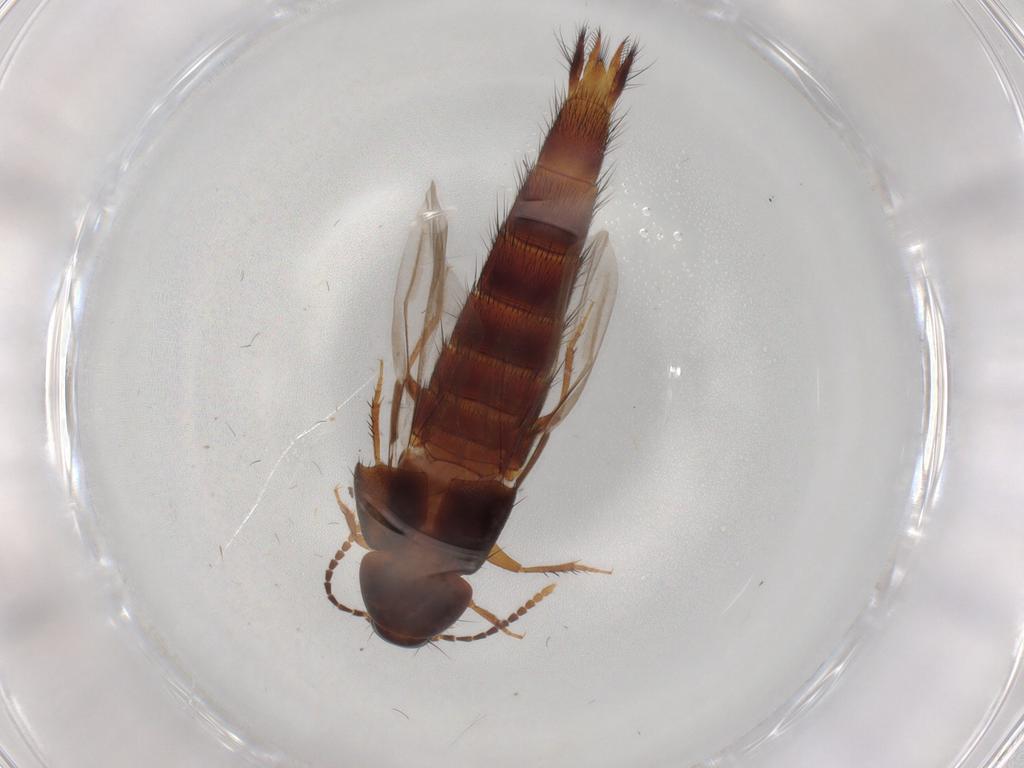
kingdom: Animalia
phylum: Arthropoda
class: Insecta
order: Coleoptera
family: Staphylinidae
